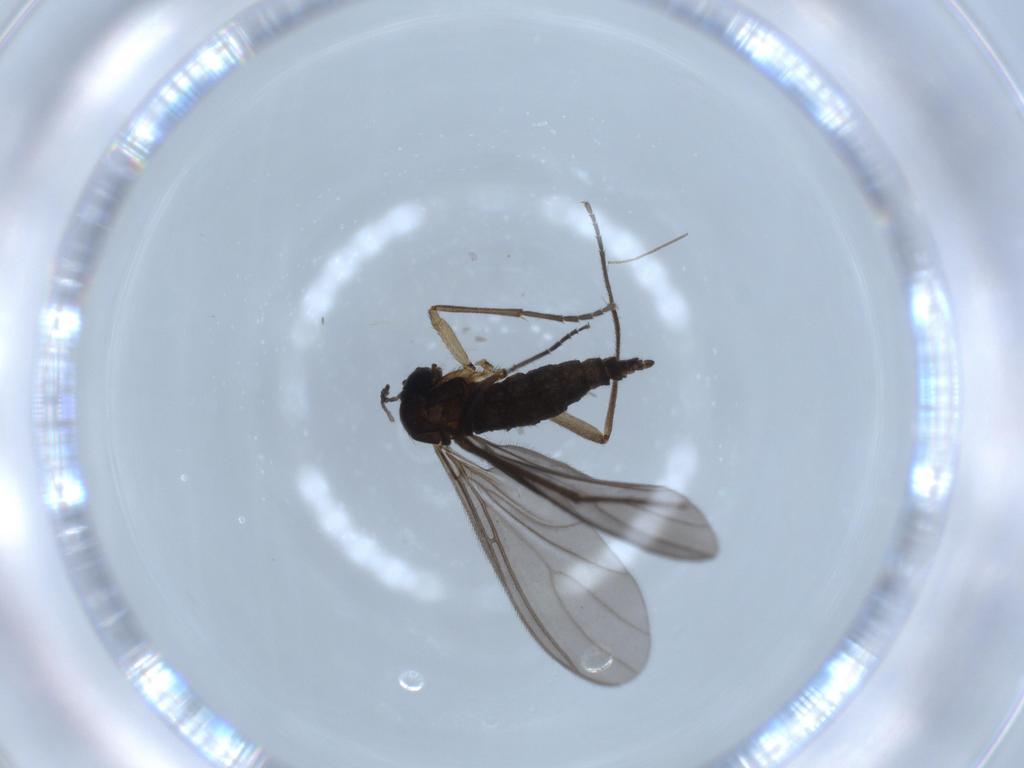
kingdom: Animalia
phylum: Arthropoda
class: Insecta
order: Diptera
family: Sciaridae
